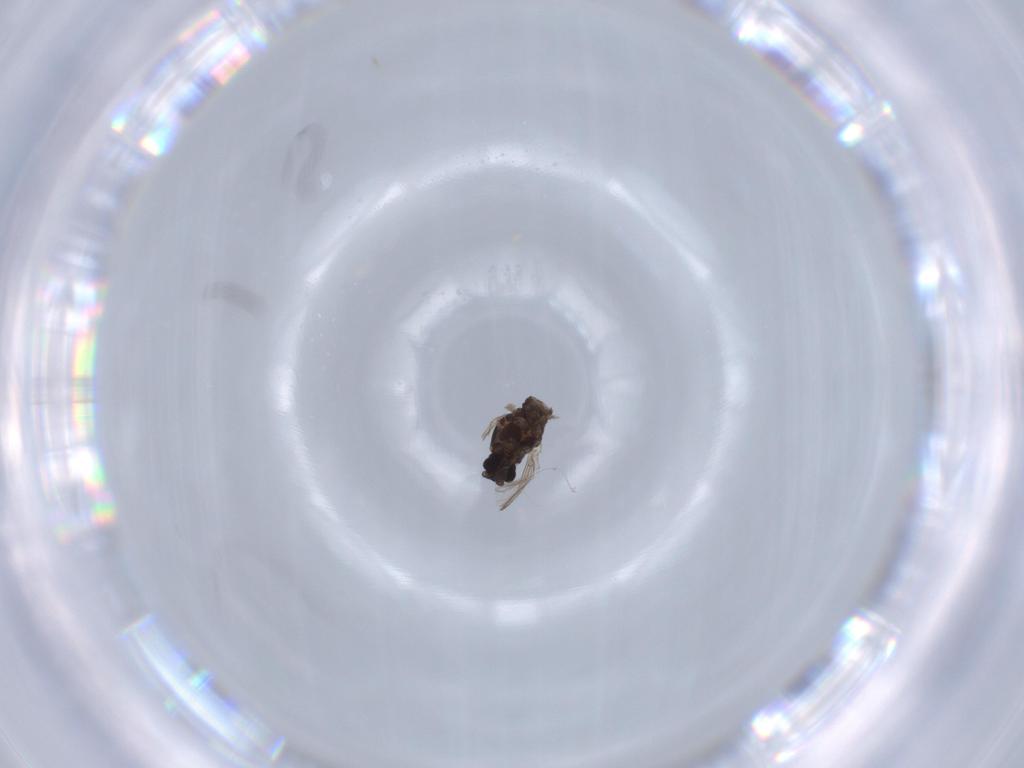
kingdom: Animalia
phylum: Arthropoda
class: Insecta
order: Diptera
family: Cecidomyiidae
